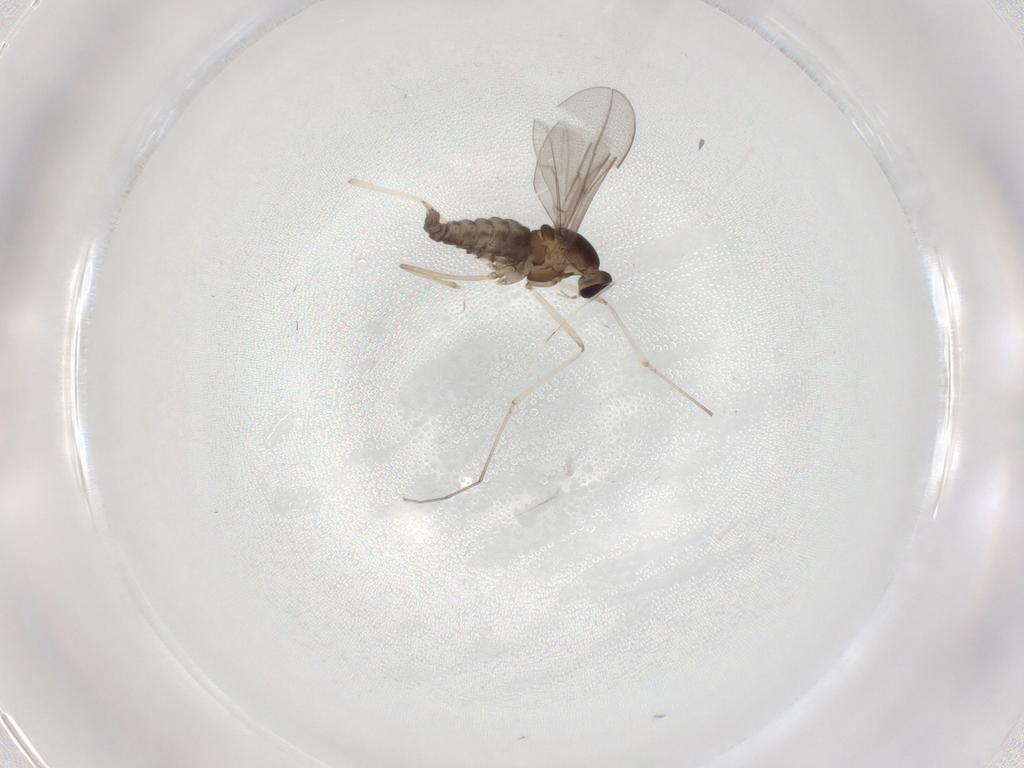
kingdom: Animalia
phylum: Arthropoda
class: Insecta
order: Diptera
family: Cecidomyiidae
